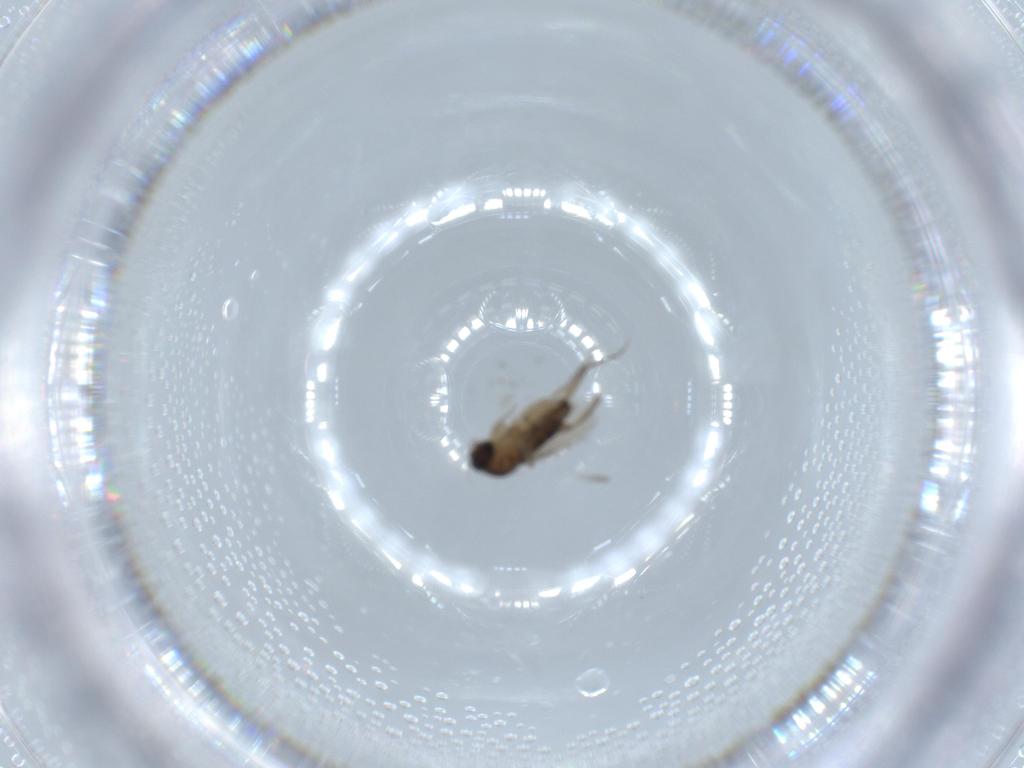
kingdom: Animalia
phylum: Arthropoda
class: Insecta
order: Diptera
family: Phoridae
